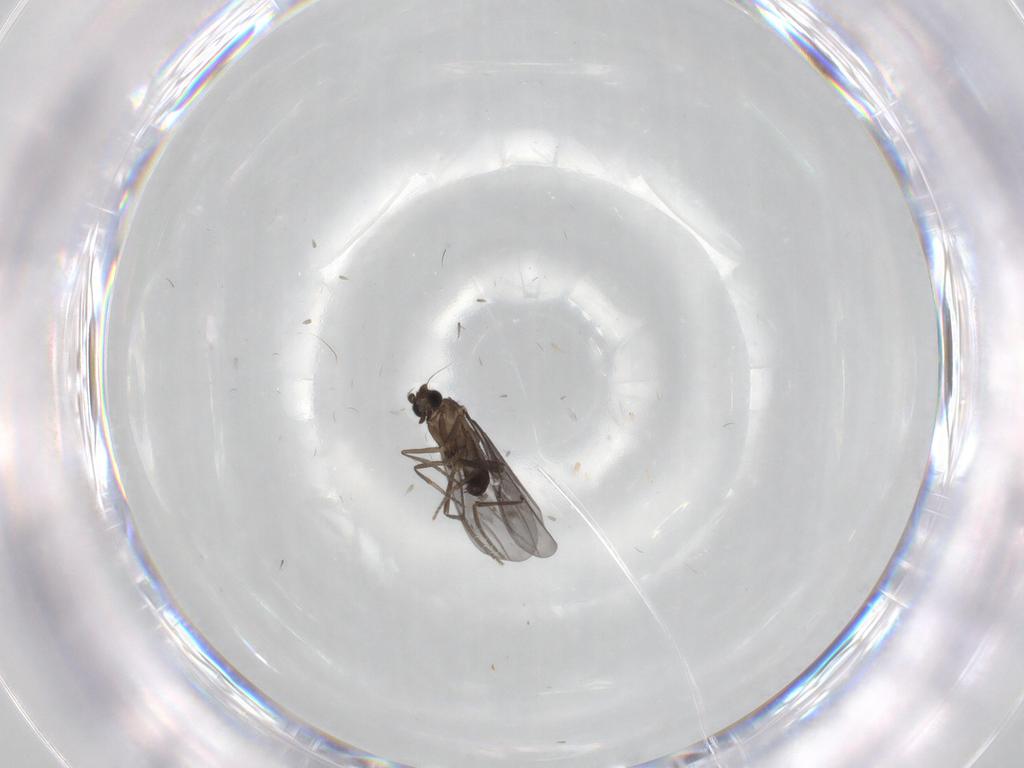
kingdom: Animalia
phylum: Arthropoda
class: Insecta
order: Diptera
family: Phoridae
